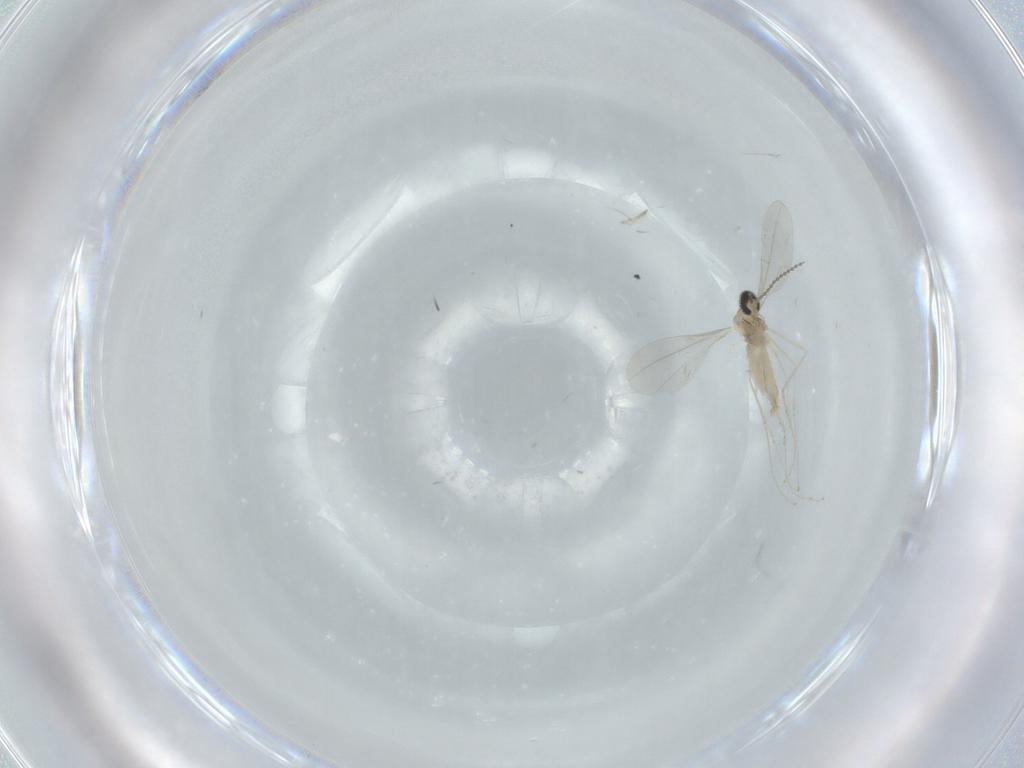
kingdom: Animalia
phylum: Arthropoda
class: Insecta
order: Diptera
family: Cecidomyiidae
